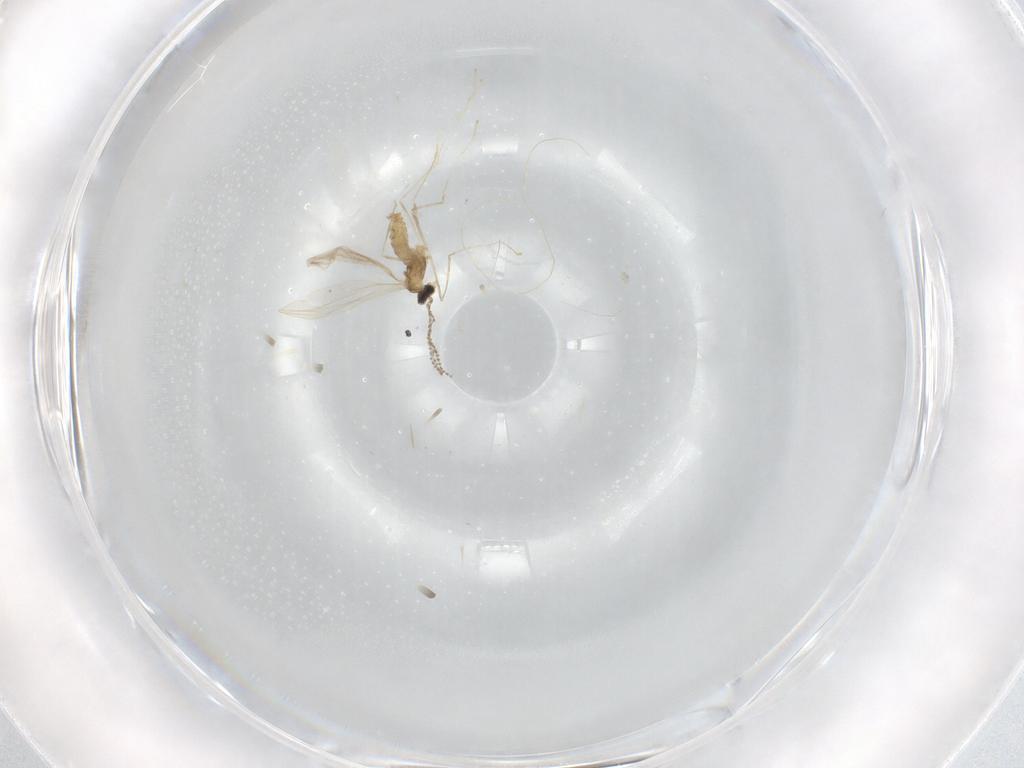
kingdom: Animalia
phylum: Arthropoda
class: Insecta
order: Diptera
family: Cecidomyiidae
